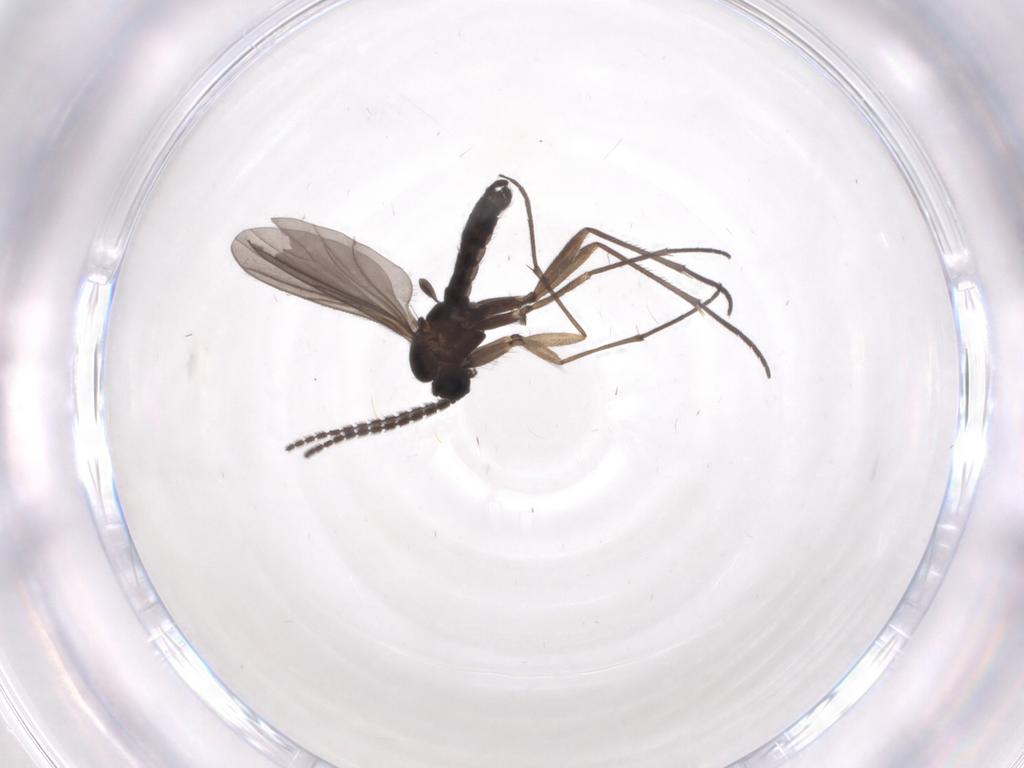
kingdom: Animalia
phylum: Arthropoda
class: Insecta
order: Diptera
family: Sciaridae
